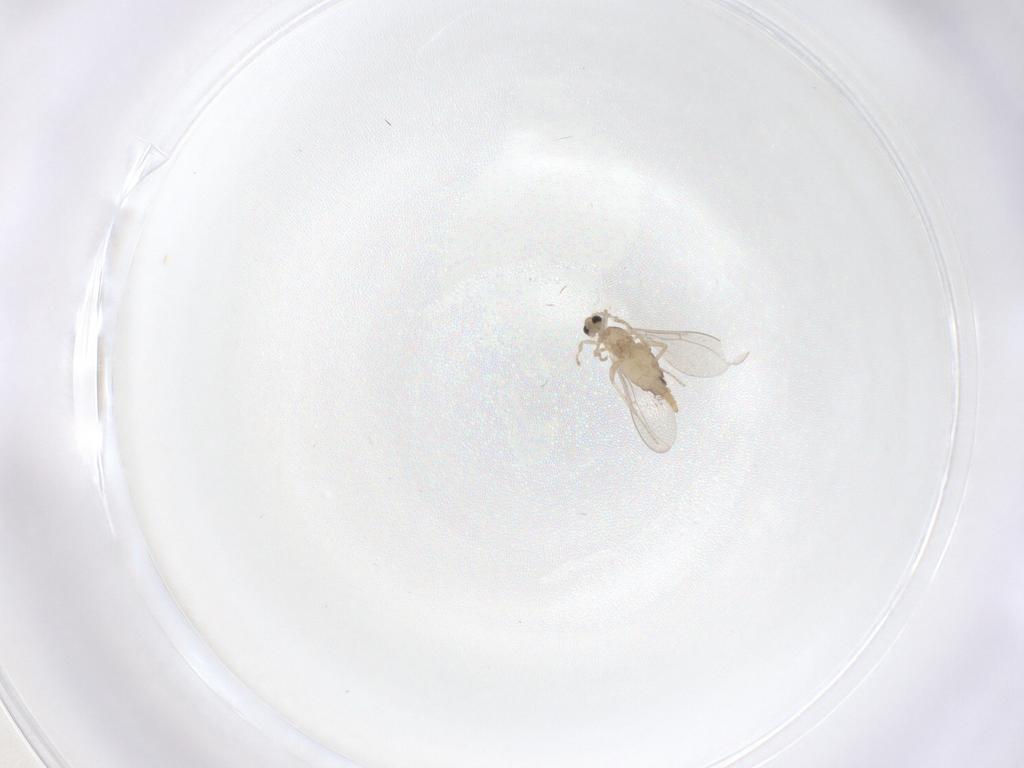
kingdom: Animalia
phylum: Arthropoda
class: Insecta
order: Diptera
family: Cecidomyiidae
